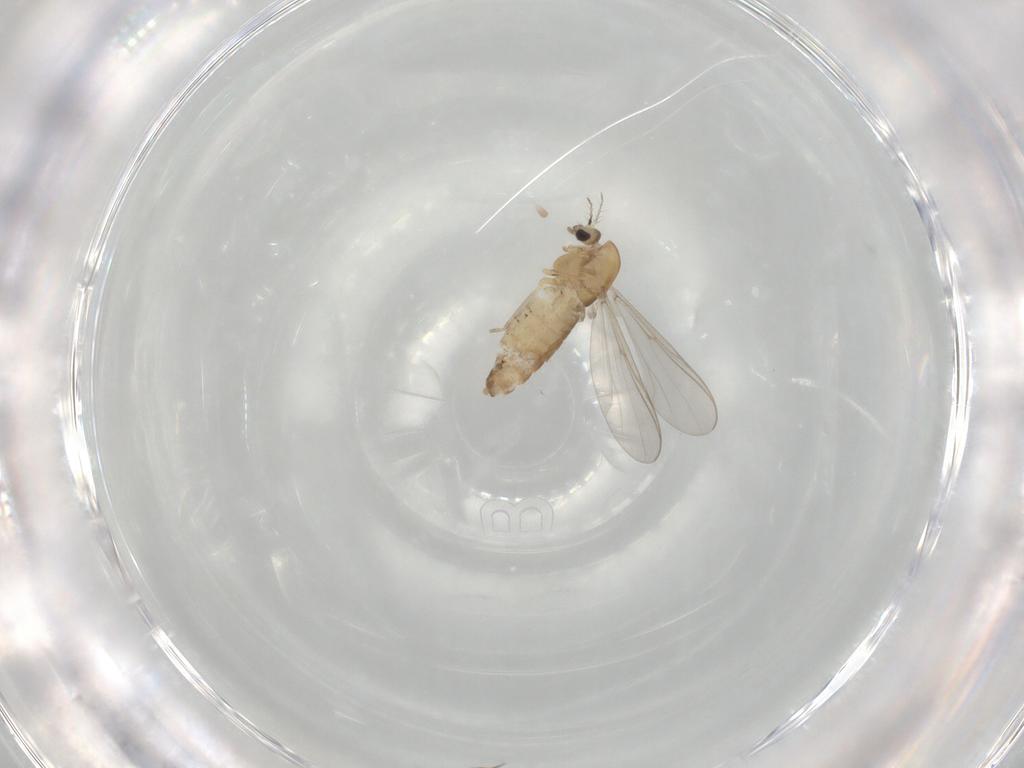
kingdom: Animalia
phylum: Arthropoda
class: Insecta
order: Diptera
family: Chironomidae
